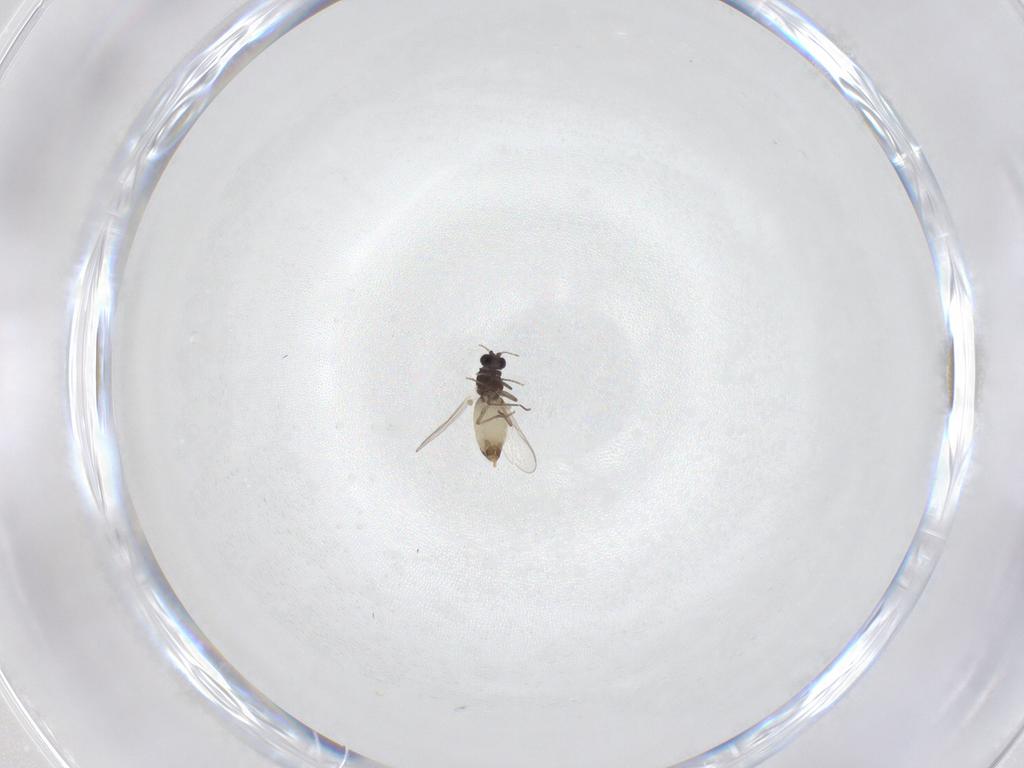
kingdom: Animalia
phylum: Arthropoda
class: Insecta
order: Diptera
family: Chironomidae
